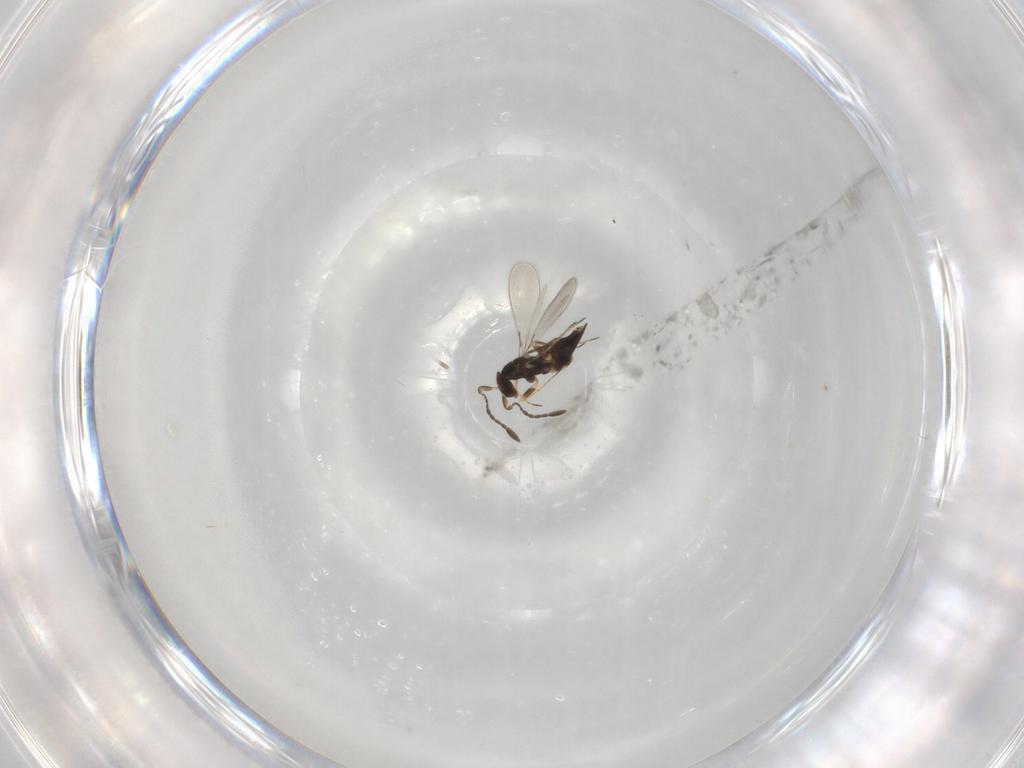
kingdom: Animalia
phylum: Arthropoda
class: Insecta
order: Hymenoptera
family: Mymaridae
